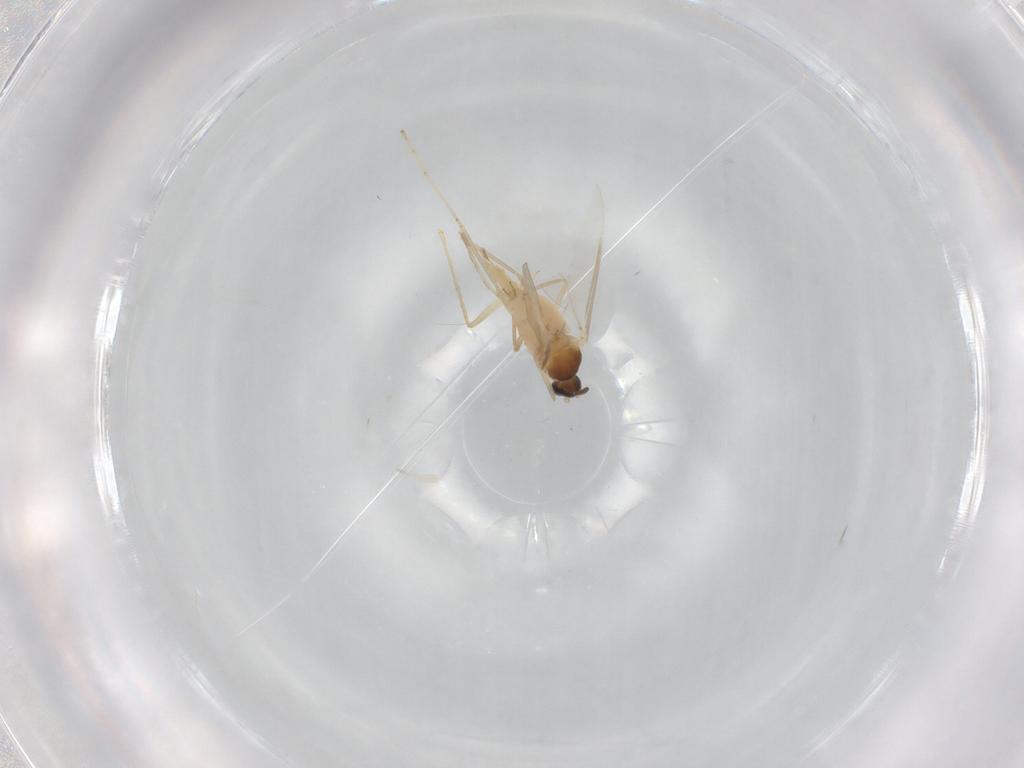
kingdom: Animalia
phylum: Arthropoda
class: Insecta
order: Diptera
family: Cecidomyiidae
